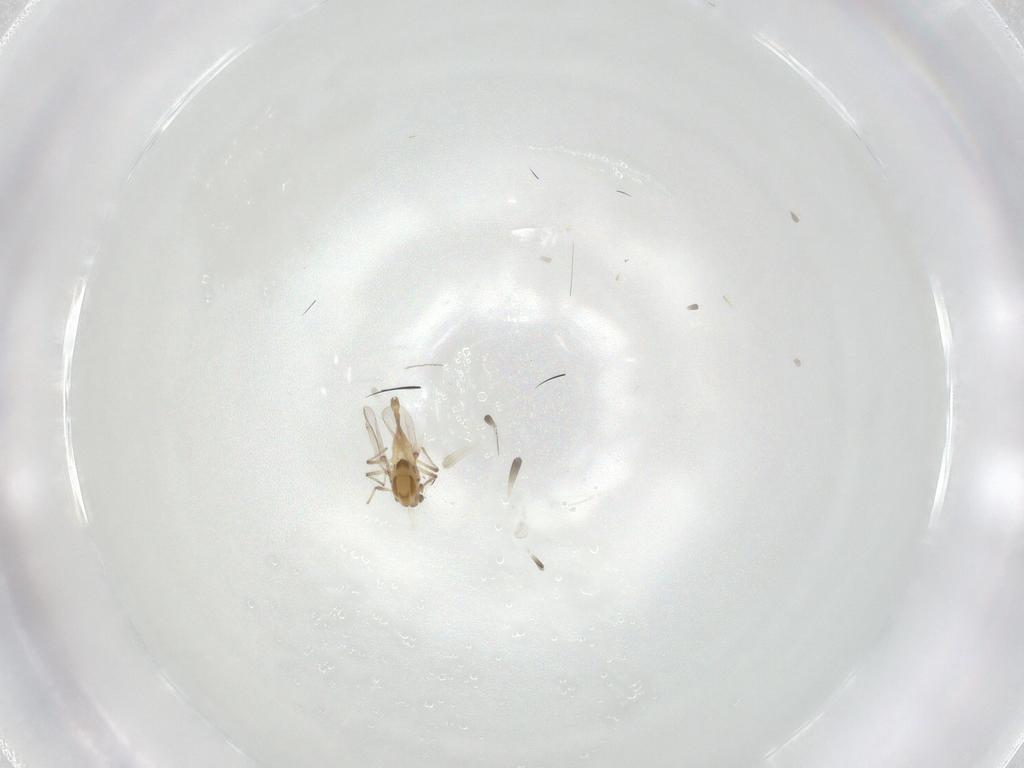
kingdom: Animalia
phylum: Arthropoda
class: Insecta
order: Diptera
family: Chironomidae
